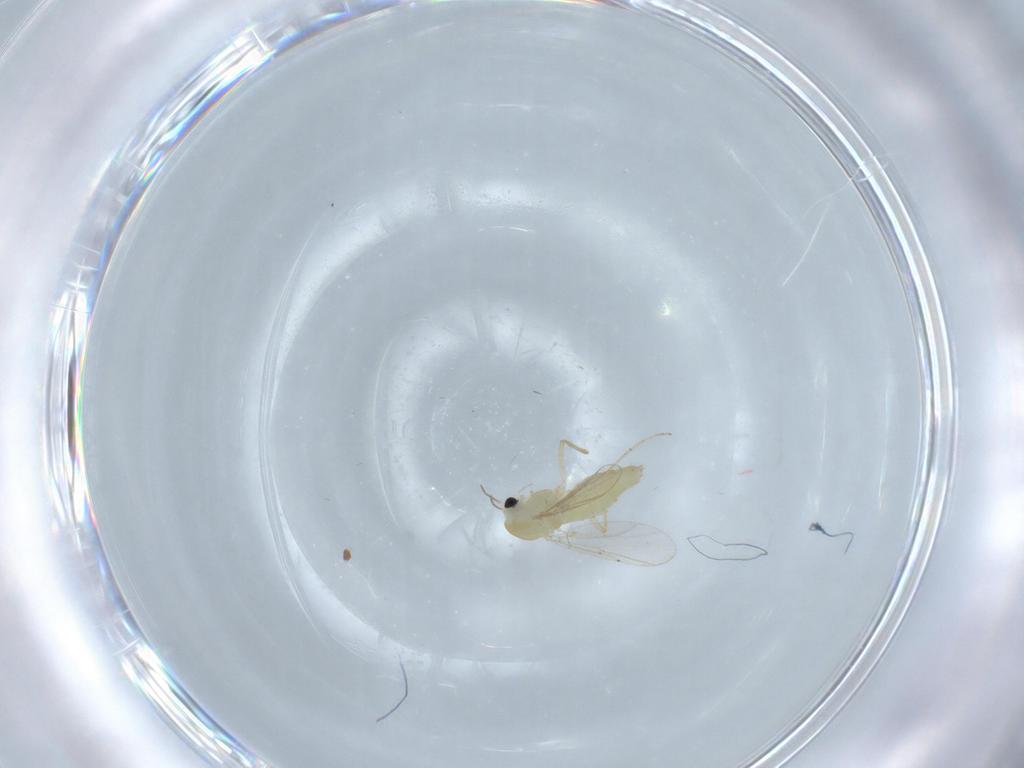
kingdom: Animalia
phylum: Arthropoda
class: Insecta
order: Diptera
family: Chironomidae
